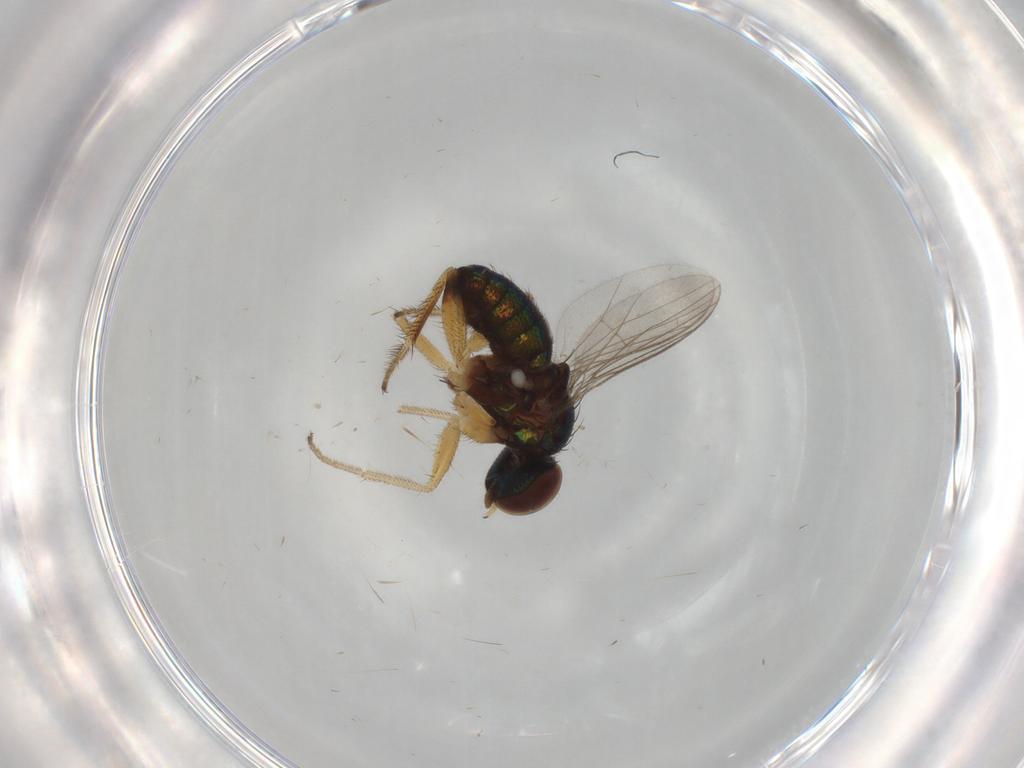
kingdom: Animalia
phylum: Arthropoda
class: Insecta
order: Diptera
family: Psychodidae
